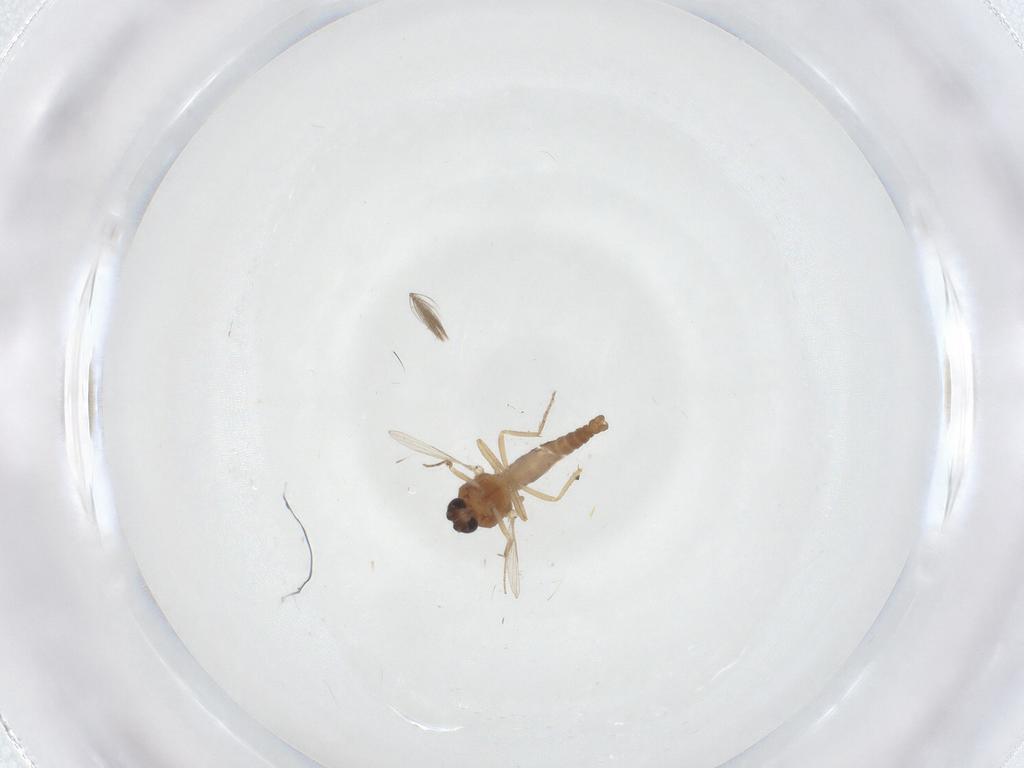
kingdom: Animalia
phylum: Arthropoda
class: Insecta
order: Diptera
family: Ceratopogonidae
